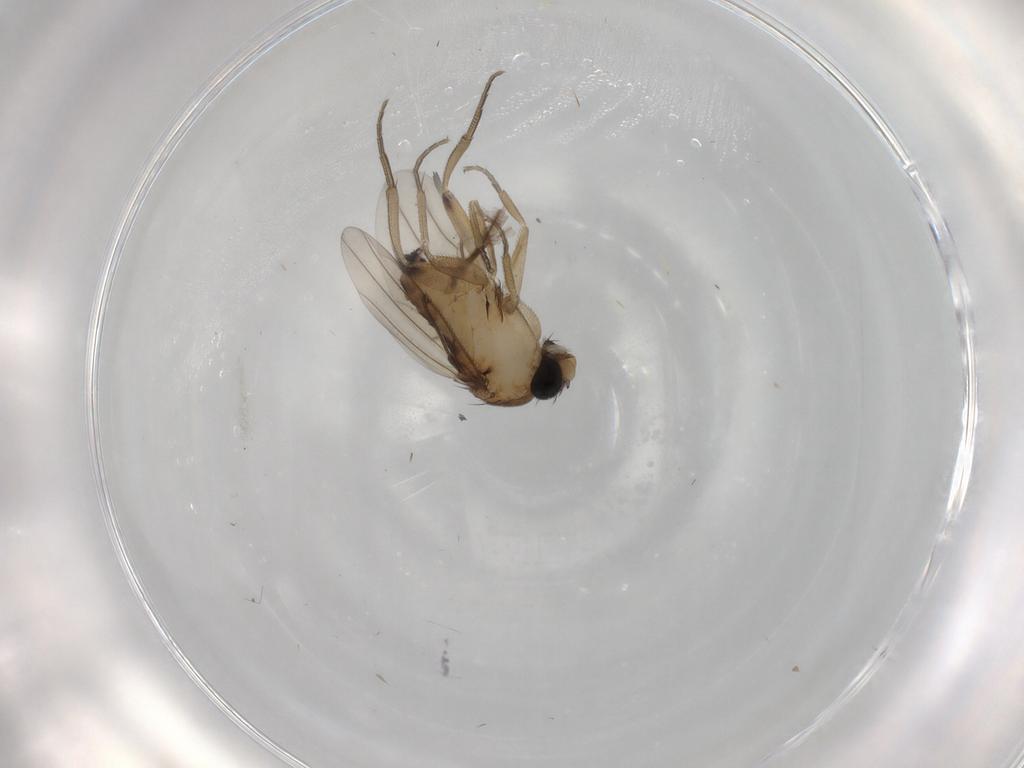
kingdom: Animalia
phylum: Arthropoda
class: Insecta
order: Diptera
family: Phoridae
